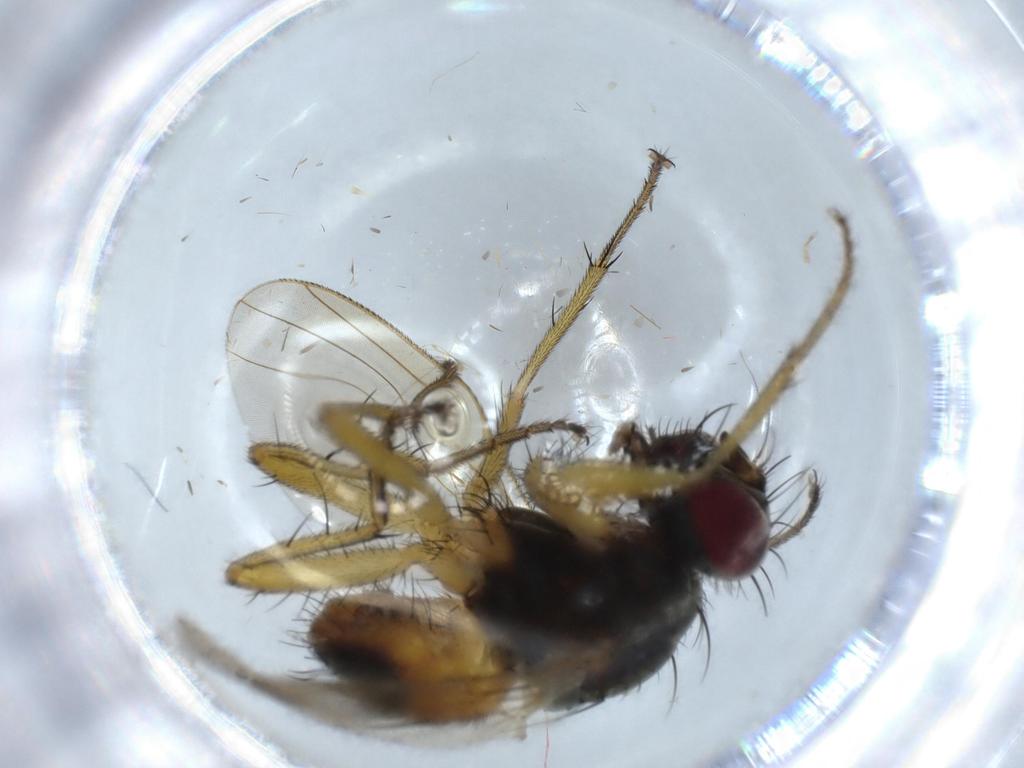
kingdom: Animalia
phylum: Arthropoda
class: Insecta
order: Diptera
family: Muscidae
